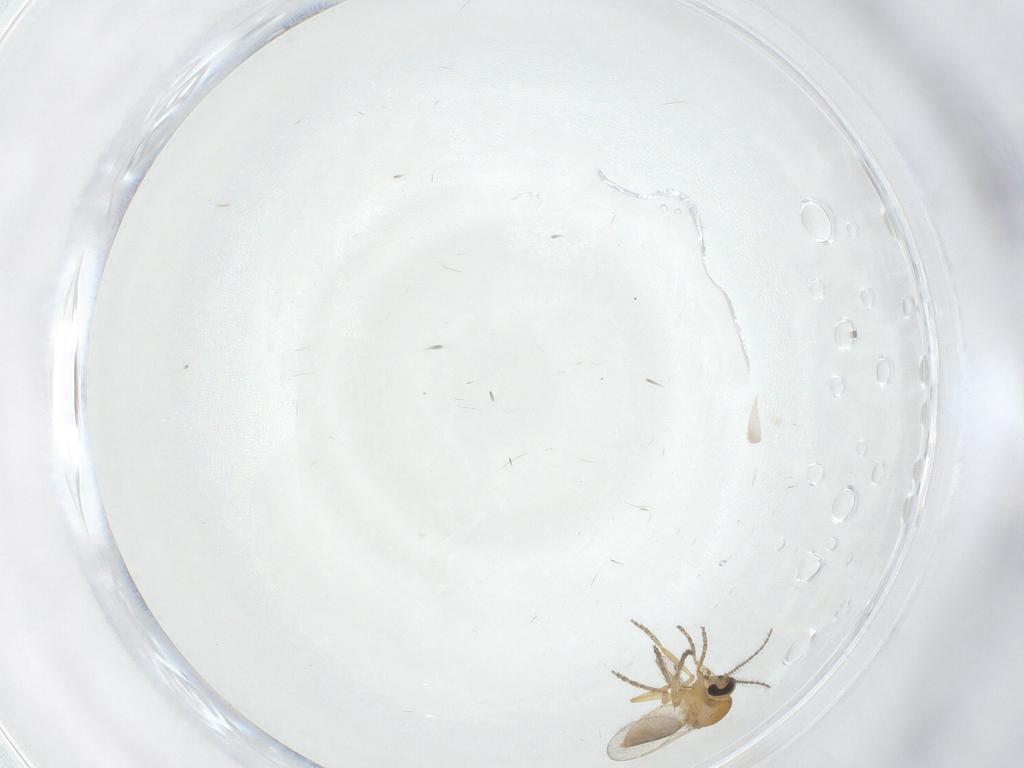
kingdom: Animalia
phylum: Arthropoda
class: Insecta
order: Diptera
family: Ceratopogonidae
